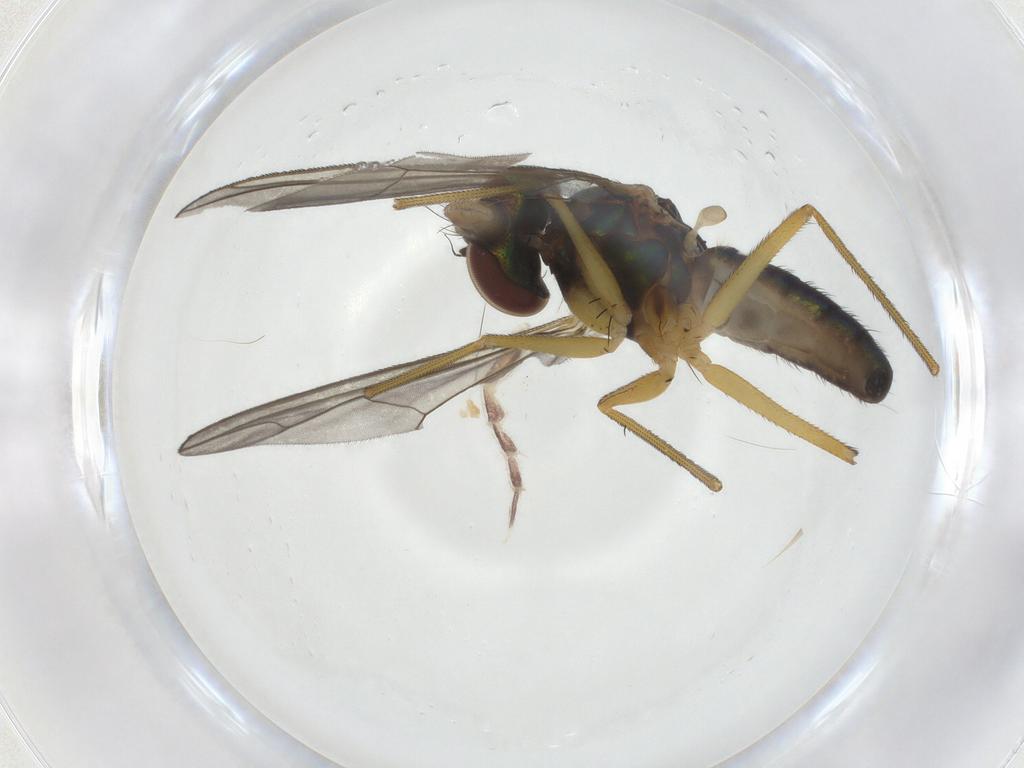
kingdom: Animalia
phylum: Arthropoda
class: Insecta
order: Diptera
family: Dolichopodidae
